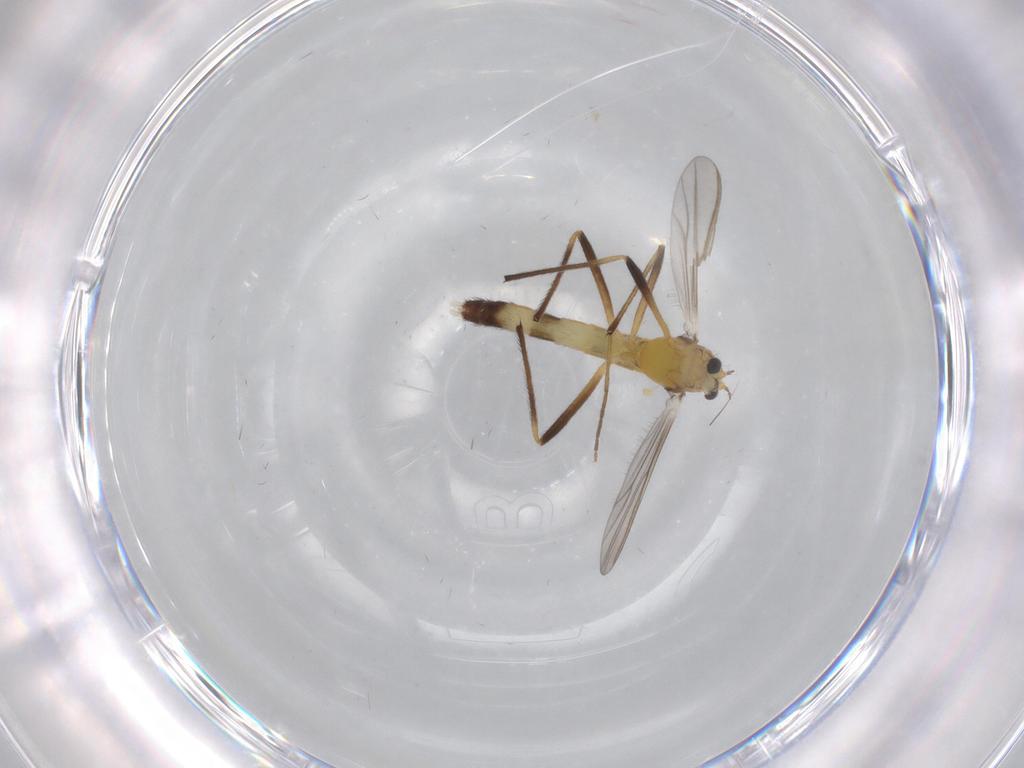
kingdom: Animalia
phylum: Arthropoda
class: Insecta
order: Diptera
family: Chironomidae
